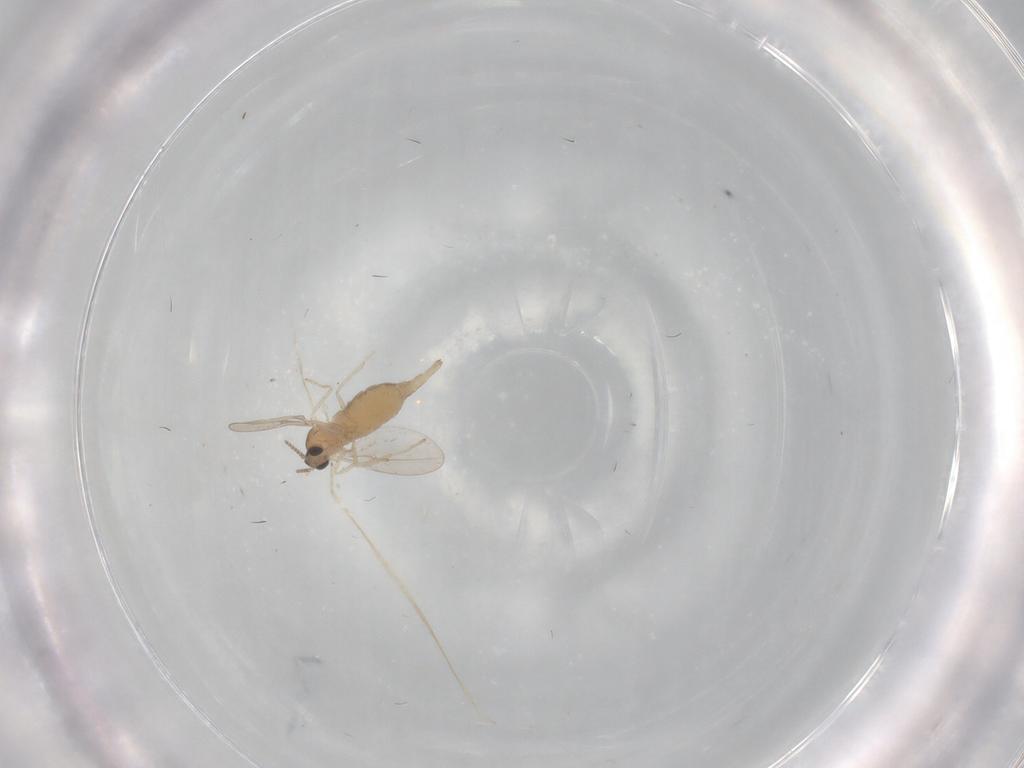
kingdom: Animalia
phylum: Arthropoda
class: Insecta
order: Diptera
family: Cecidomyiidae
